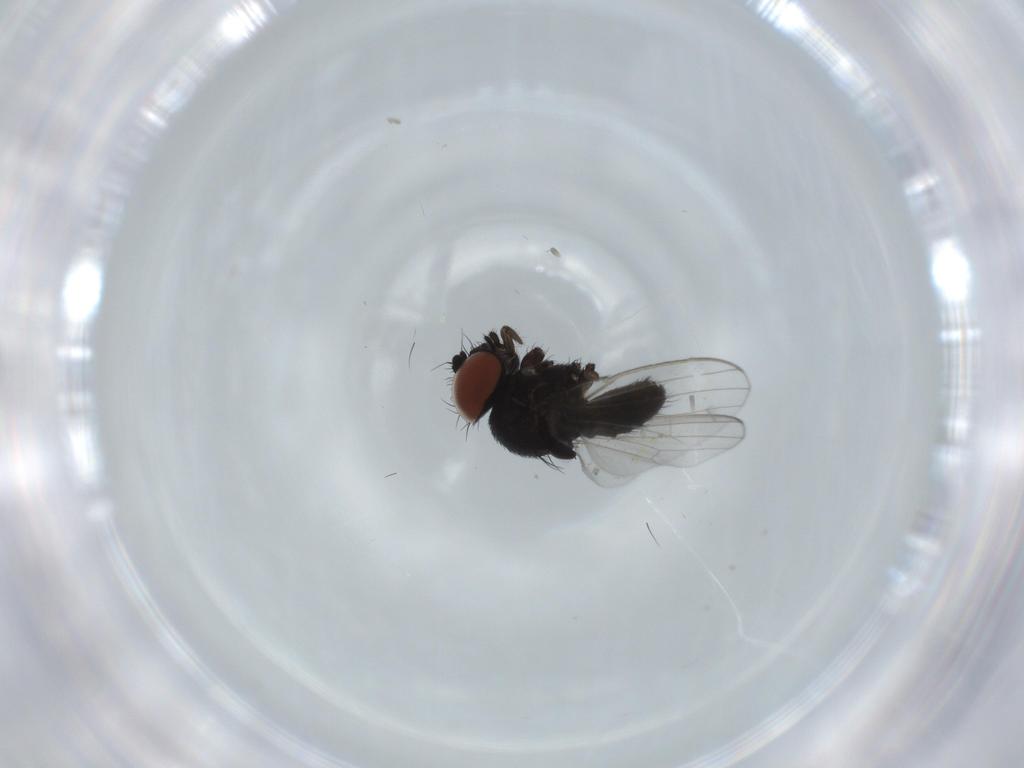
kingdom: Animalia
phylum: Arthropoda
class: Insecta
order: Diptera
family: Milichiidae
